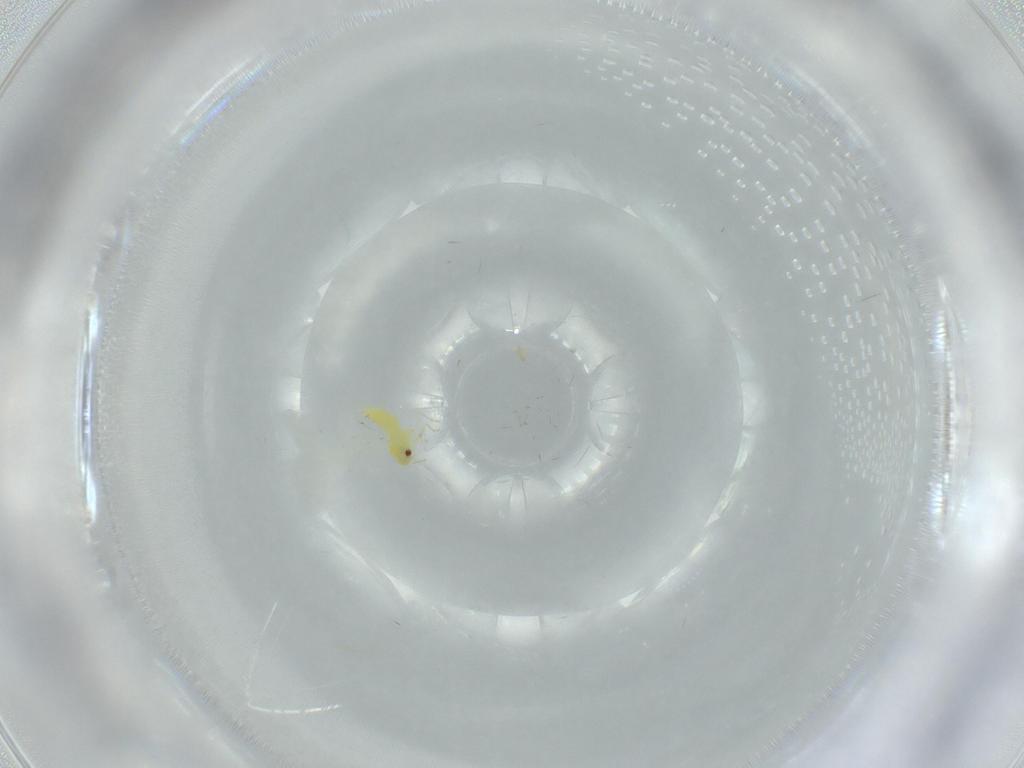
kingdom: Animalia
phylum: Arthropoda
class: Insecta
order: Hemiptera
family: Aleyrodidae
